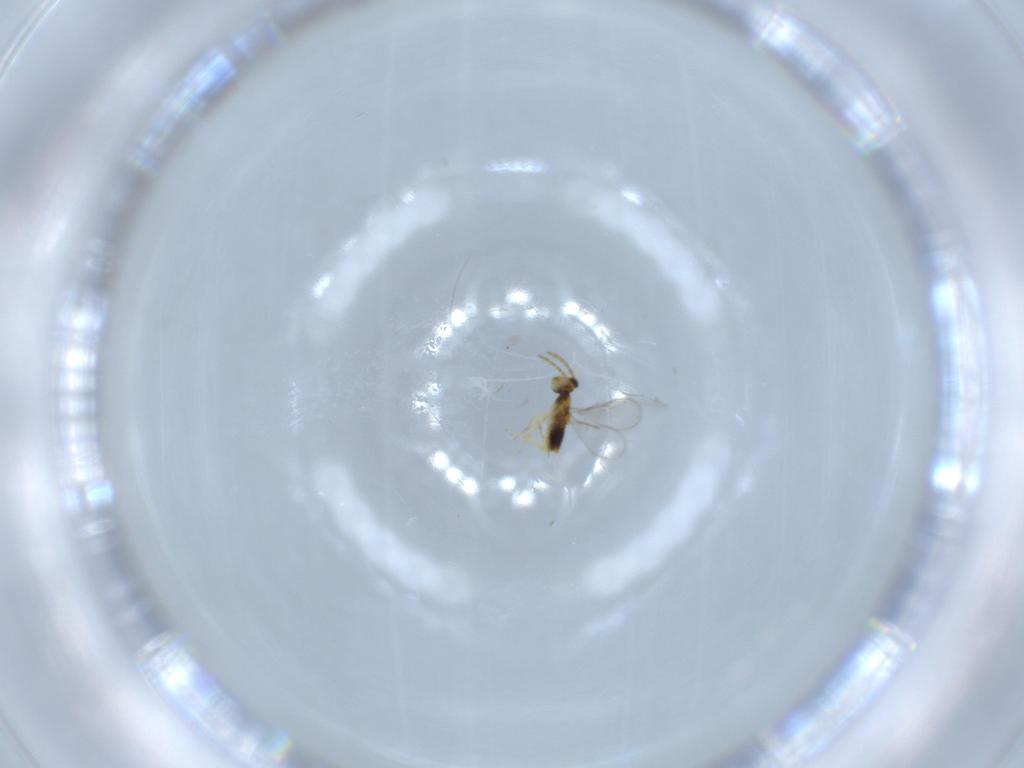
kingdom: Animalia
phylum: Arthropoda
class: Insecta
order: Hymenoptera
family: Aphelinidae
